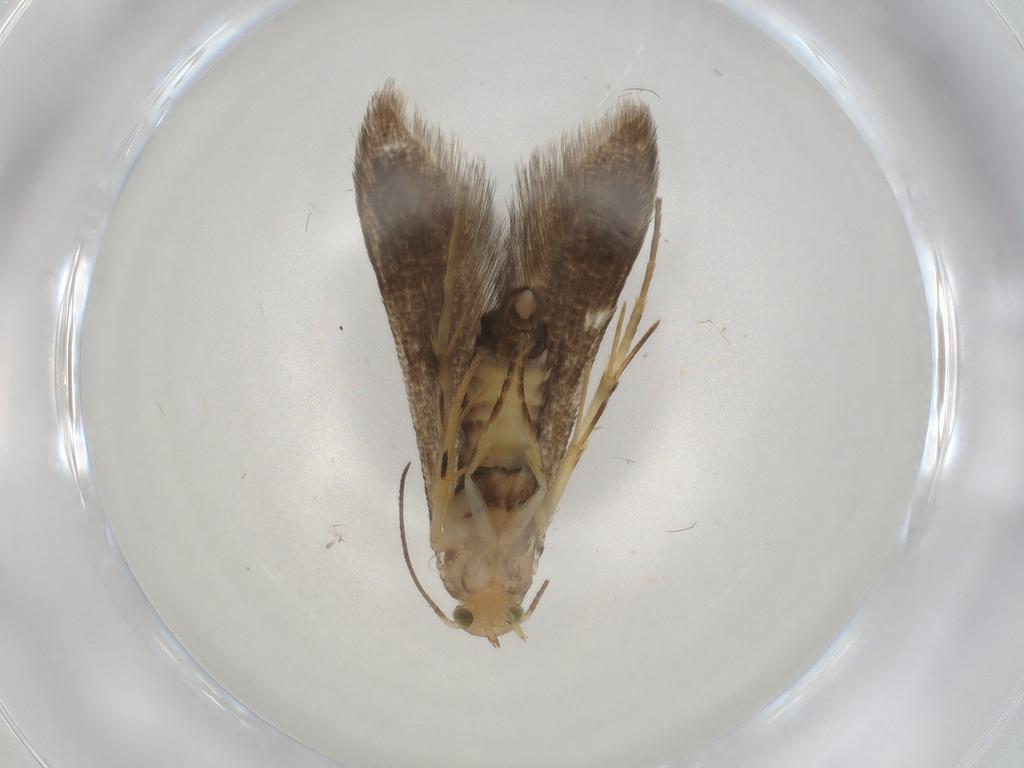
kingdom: Animalia
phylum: Arthropoda
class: Insecta
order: Lepidoptera
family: Oecophoridae
